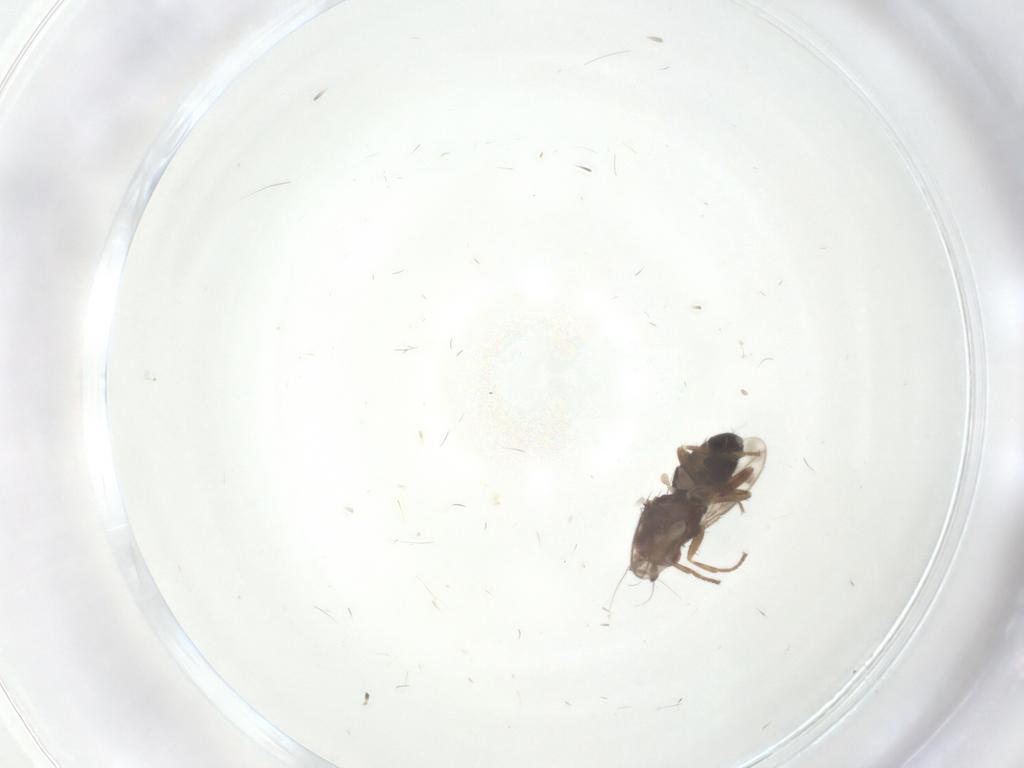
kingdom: Animalia
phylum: Arthropoda
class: Insecta
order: Diptera
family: Sphaeroceridae
